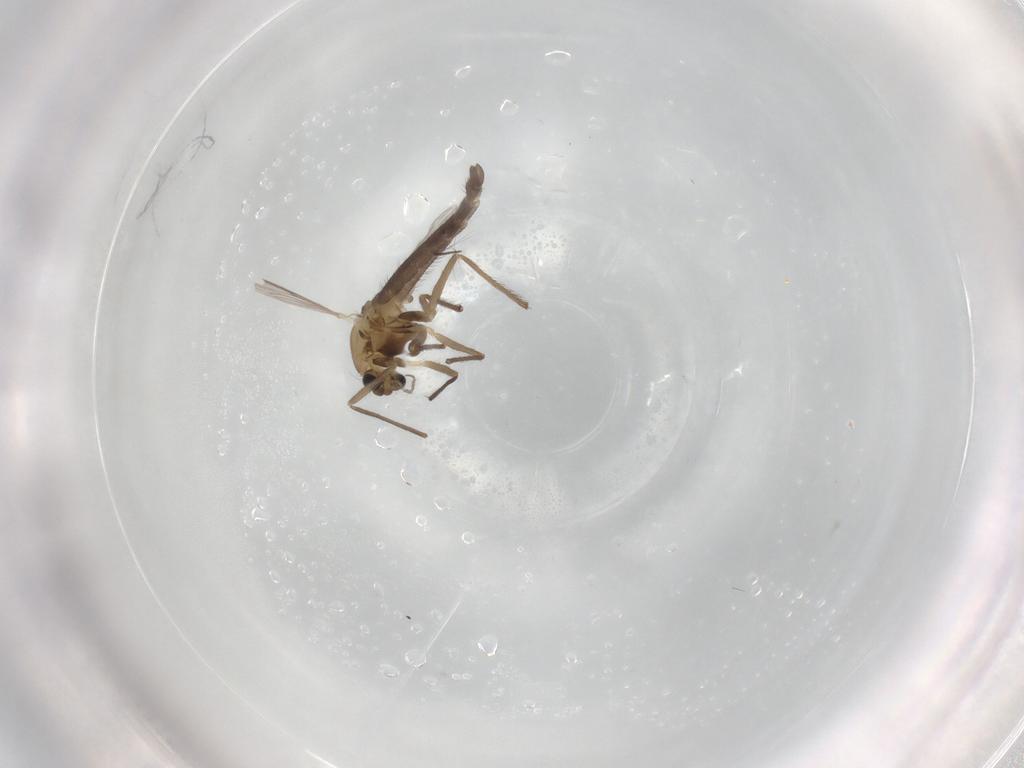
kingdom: Animalia
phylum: Arthropoda
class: Insecta
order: Diptera
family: Chironomidae
